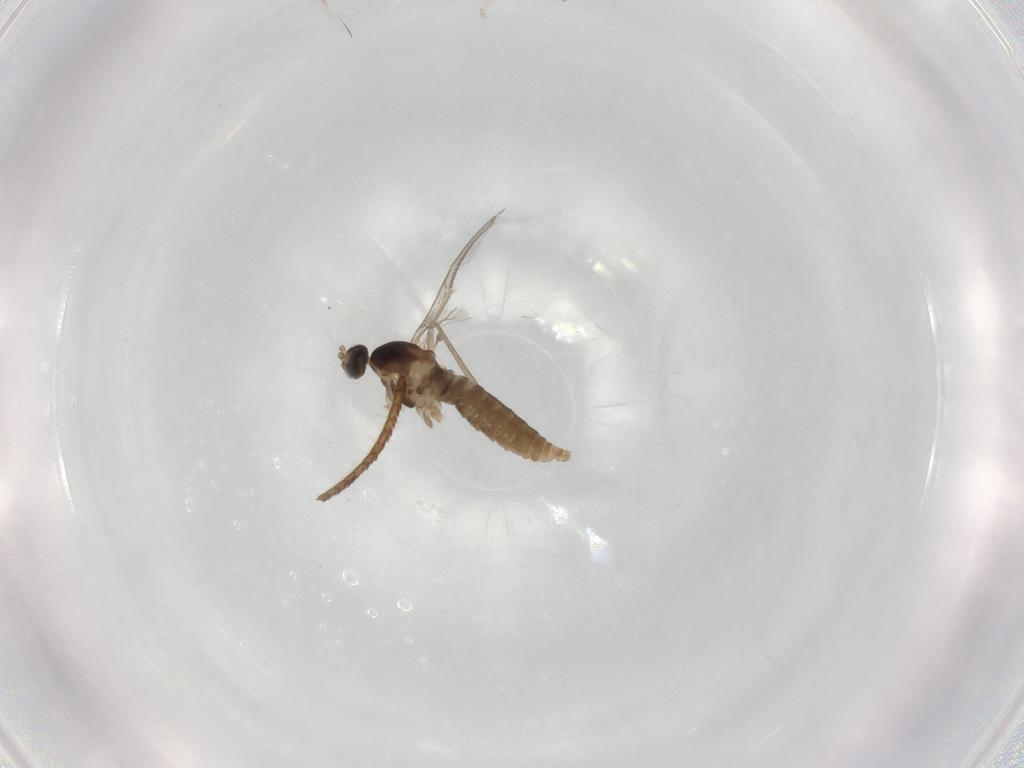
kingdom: Animalia
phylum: Arthropoda
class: Insecta
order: Diptera
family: Cecidomyiidae
